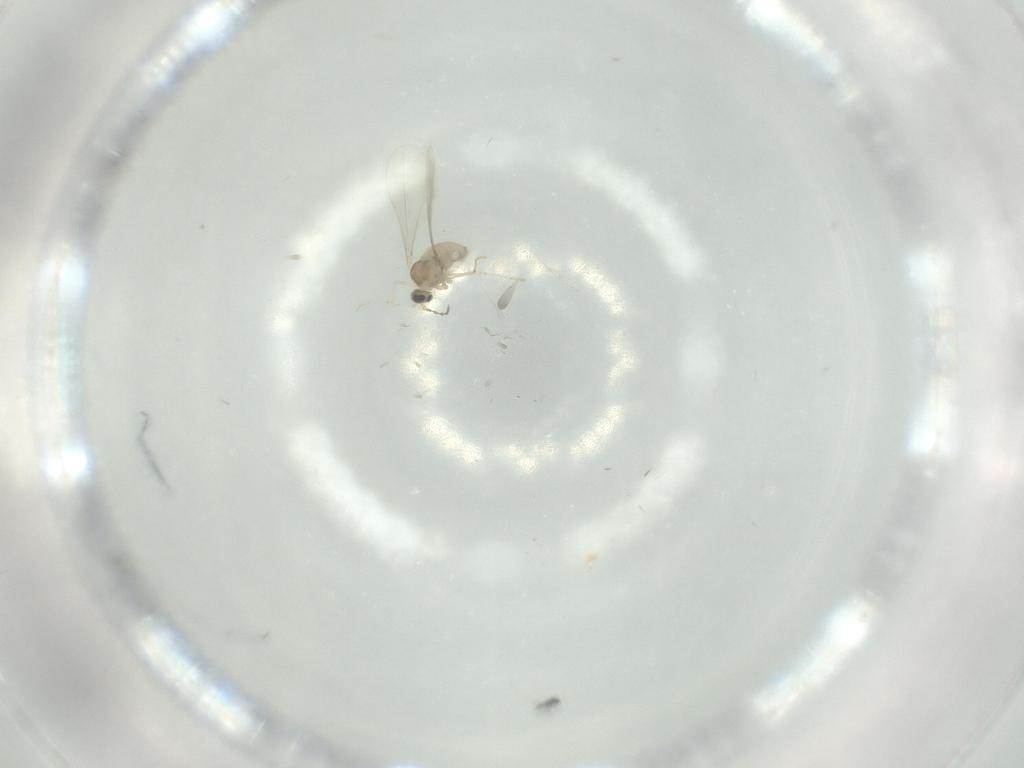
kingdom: Animalia
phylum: Arthropoda
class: Insecta
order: Diptera
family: Cecidomyiidae
